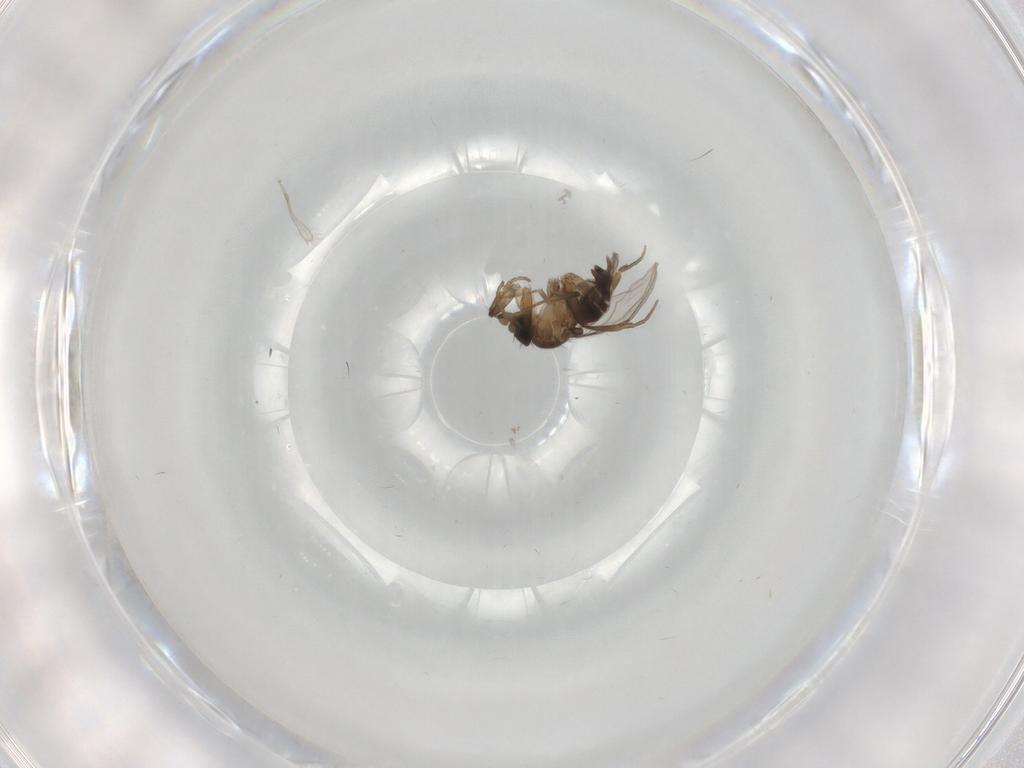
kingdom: Animalia
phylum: Arthropoda
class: Insecta
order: Diptera
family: Phoridae
